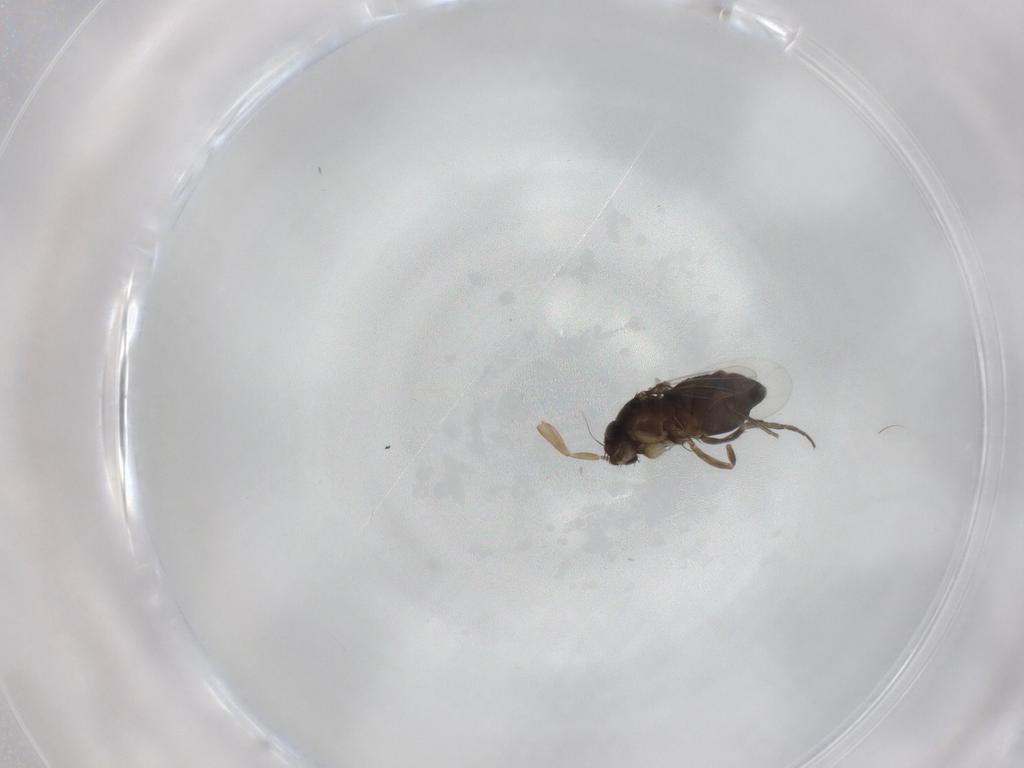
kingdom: Animalia
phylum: Arthropoda
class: Insecta
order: Diptera
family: Phoridae
